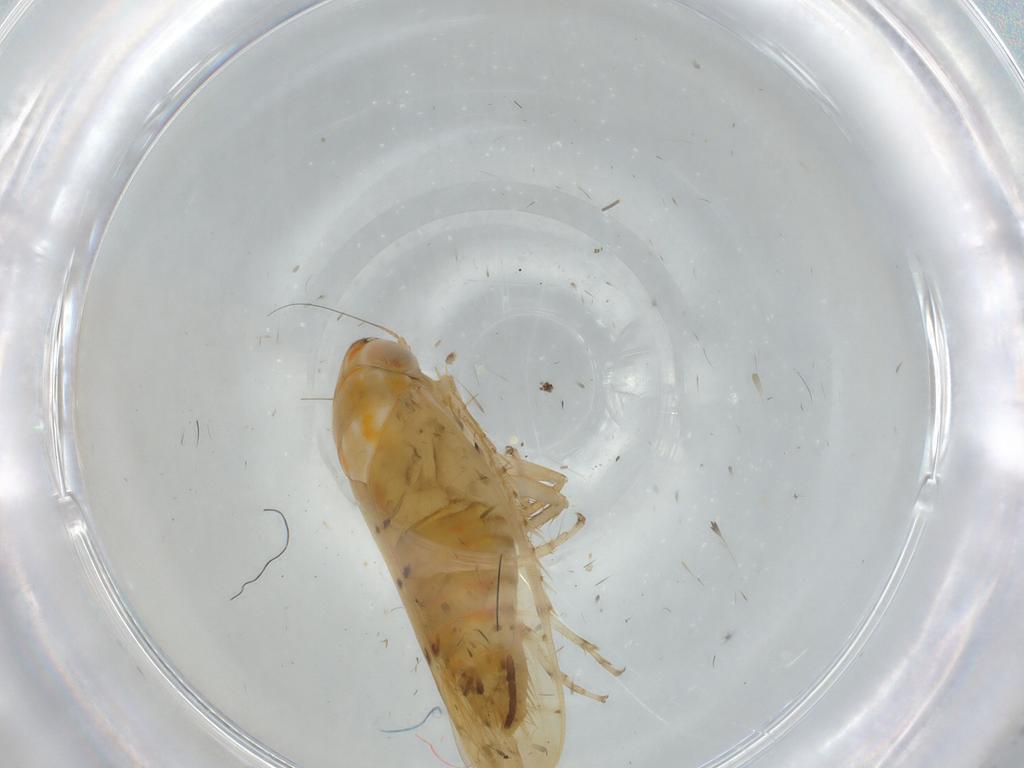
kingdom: Animalia
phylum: Arthropoda
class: Insecta
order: Hemiptera
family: Cicadellidae
